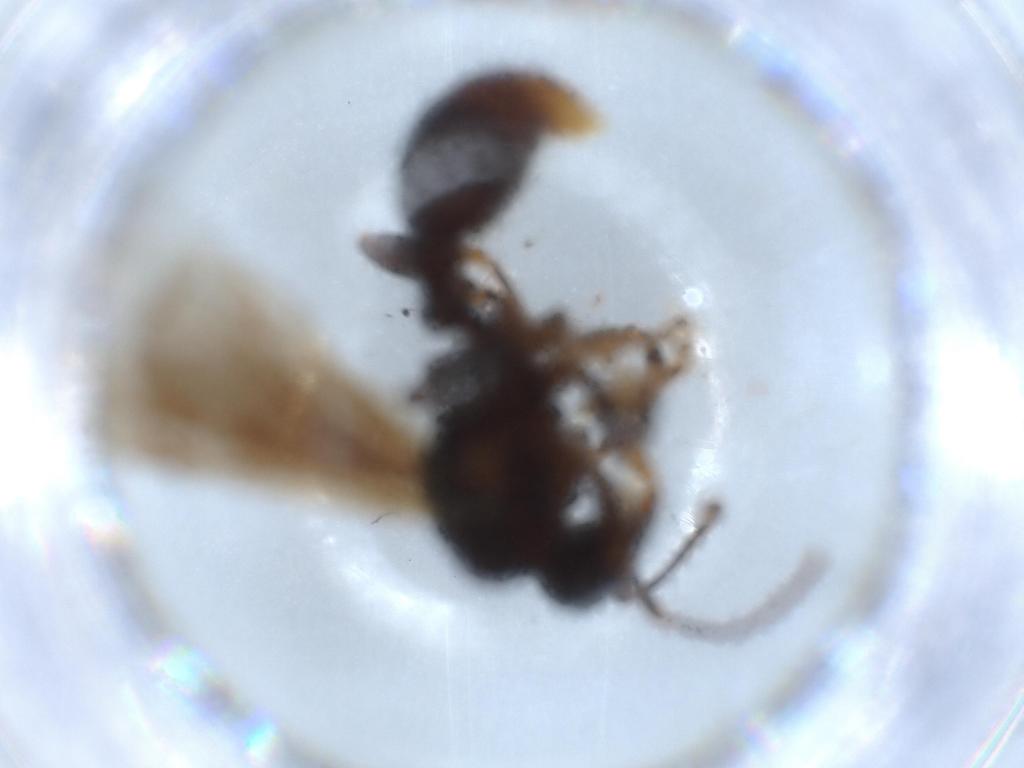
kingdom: Animalia
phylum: Arthropoda
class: Insecta
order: Hymenoptera
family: Formicidae
